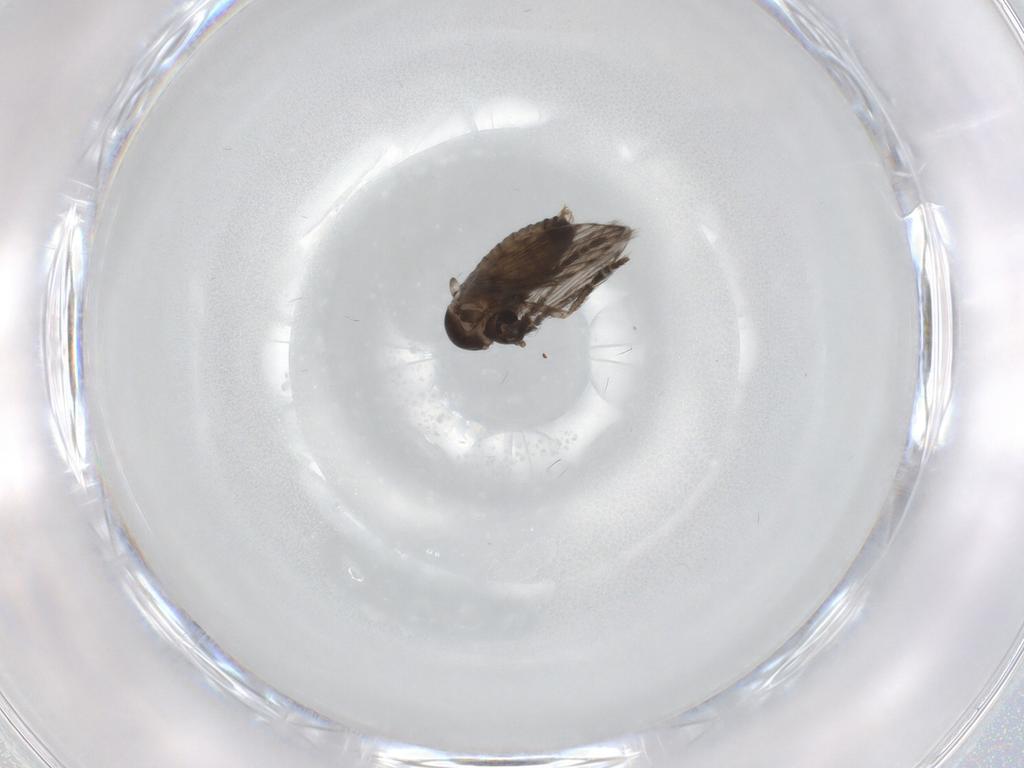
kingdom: Animalia
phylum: Arthropoda
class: Insecta
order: Diptera
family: Psychodidae
